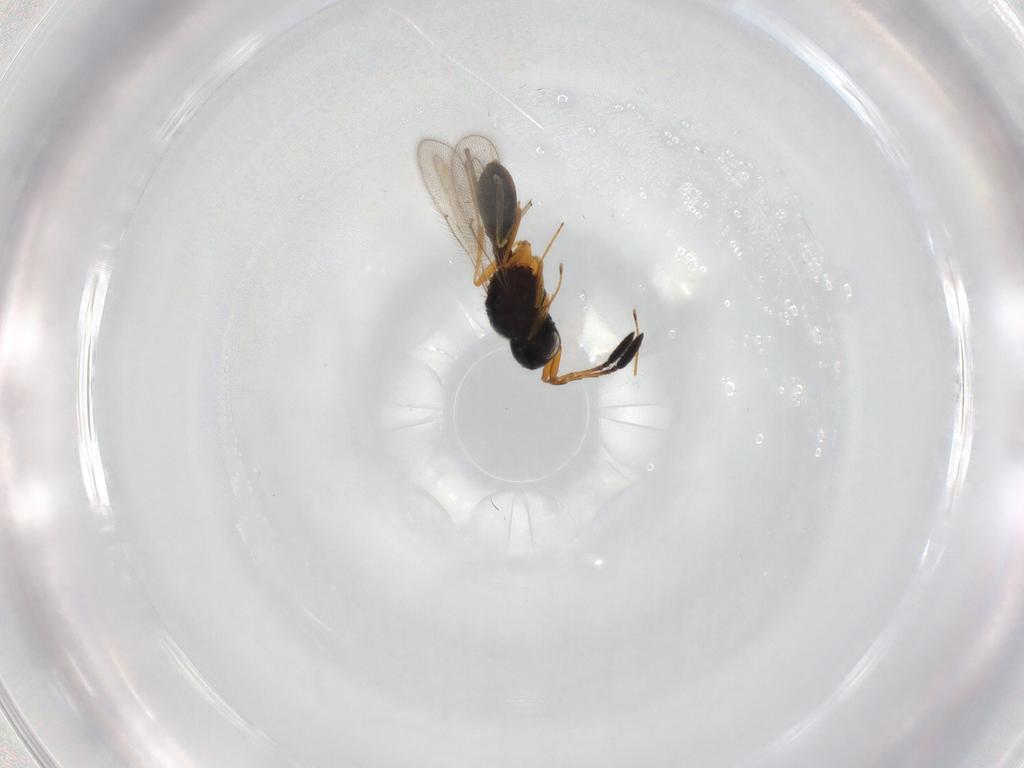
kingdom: Animalia
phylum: Arthropoda
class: Insecta
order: Hymenoptera
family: Scelionidae
